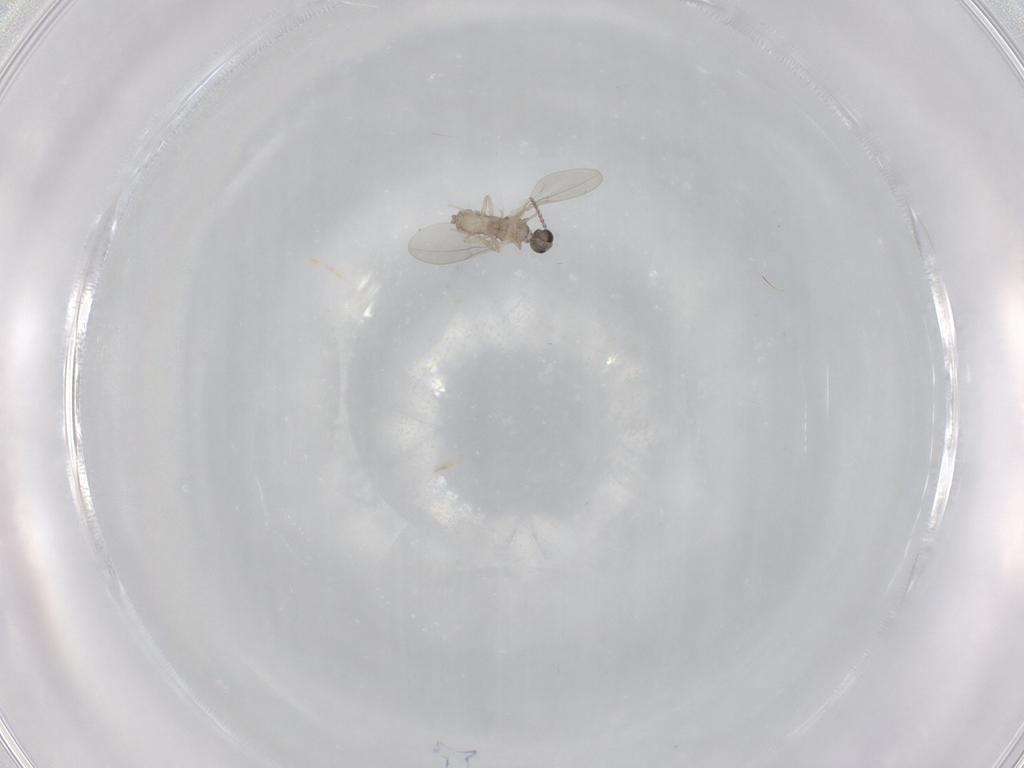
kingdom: Animalia
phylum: Arthropoda
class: Insecta
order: Diptera
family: Cecidomyiidae
